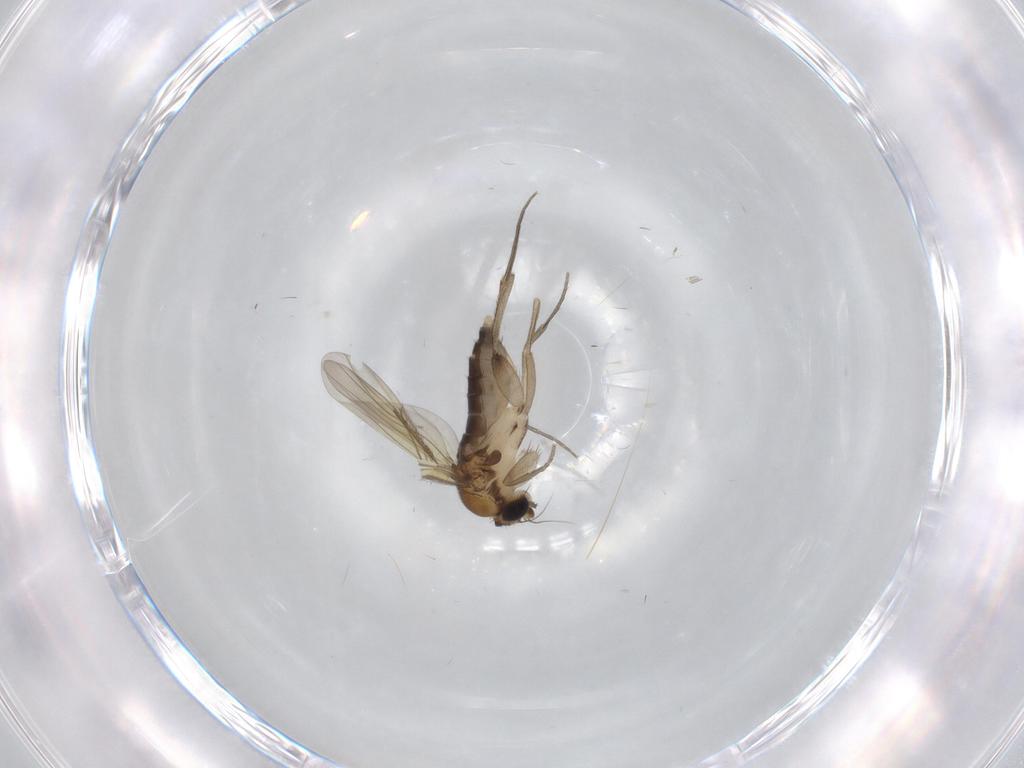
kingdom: Animalia
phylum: Arthropoda
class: Insecta
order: Diptera
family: Phoridae
